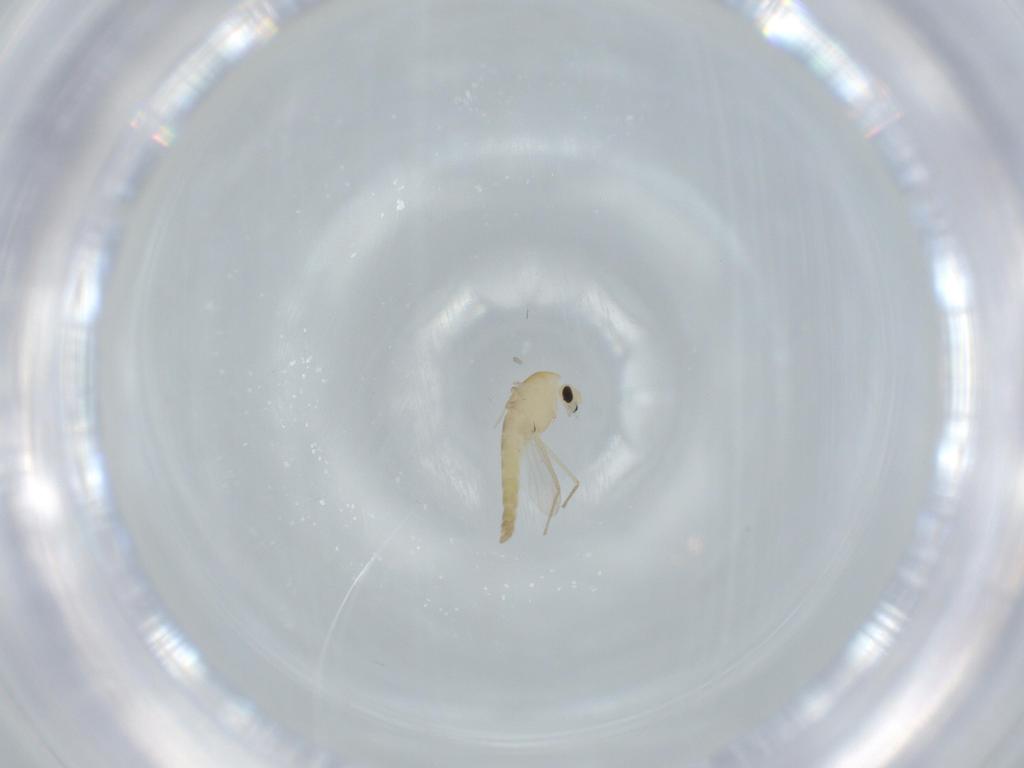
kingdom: Animalia
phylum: Arthropoda
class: Insecta
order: Diptera
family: Chironomidae
